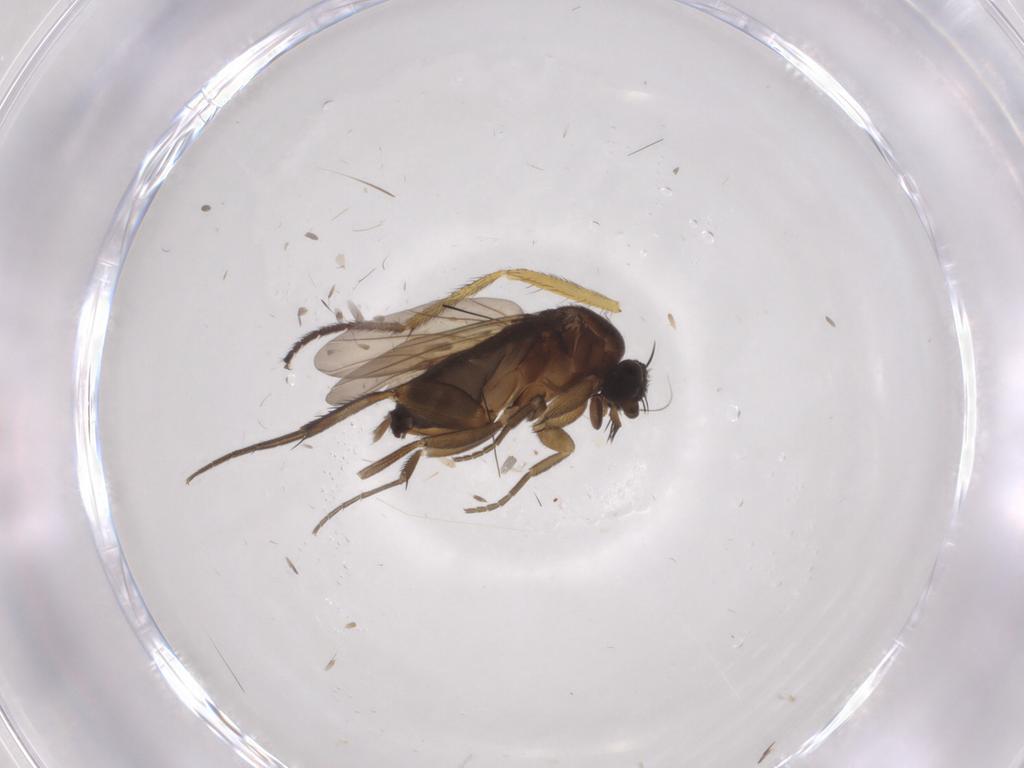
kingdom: Animalia
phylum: Arthropoda
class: Insecta
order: Diptera
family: Phoridae
